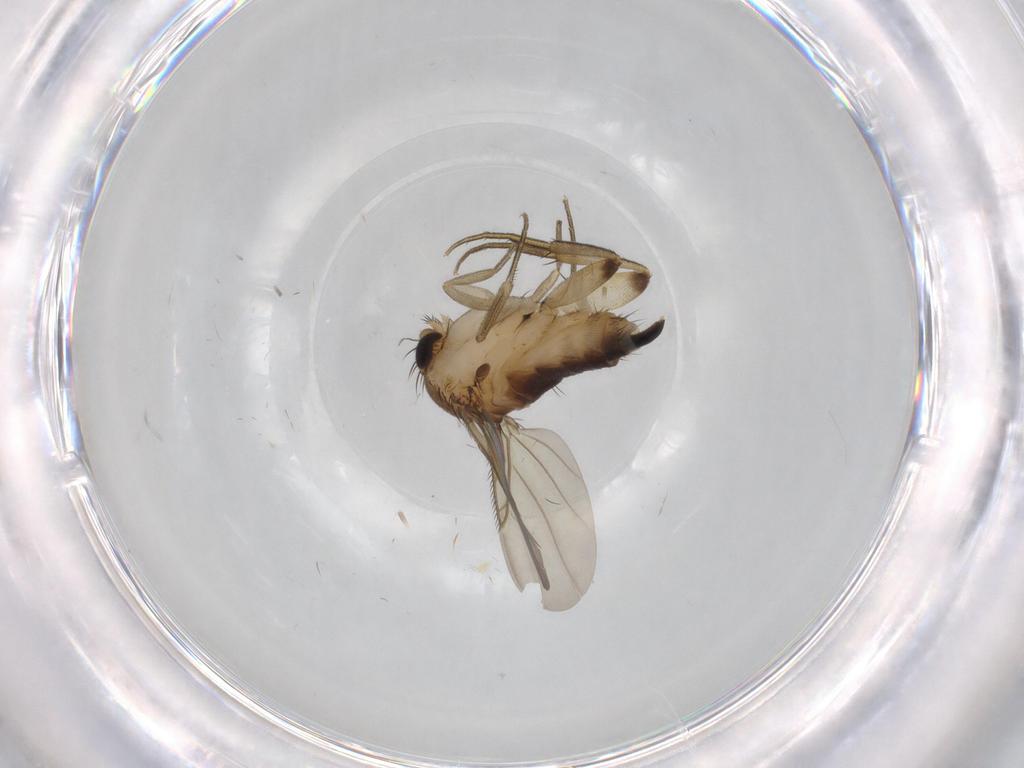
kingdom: Animalia
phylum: Arthropoda
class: Insecta
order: Diptera
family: Phoridae
